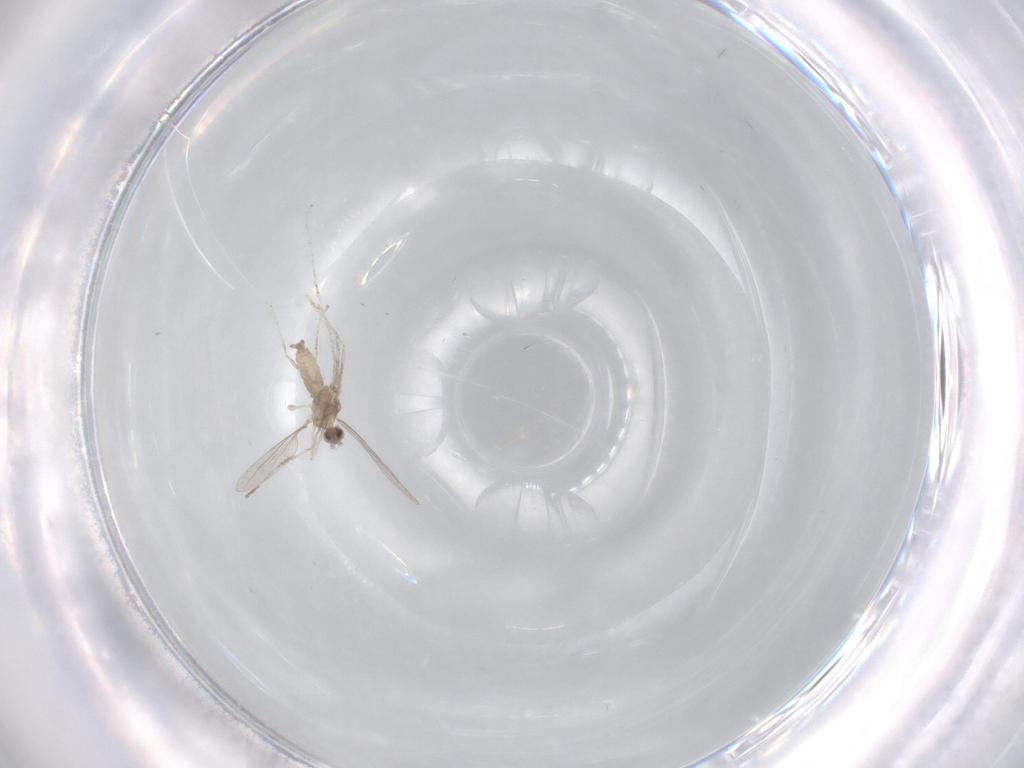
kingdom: Animalia
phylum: Arthropoda
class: Insecta
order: Diptera
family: Cecidomyiidae
